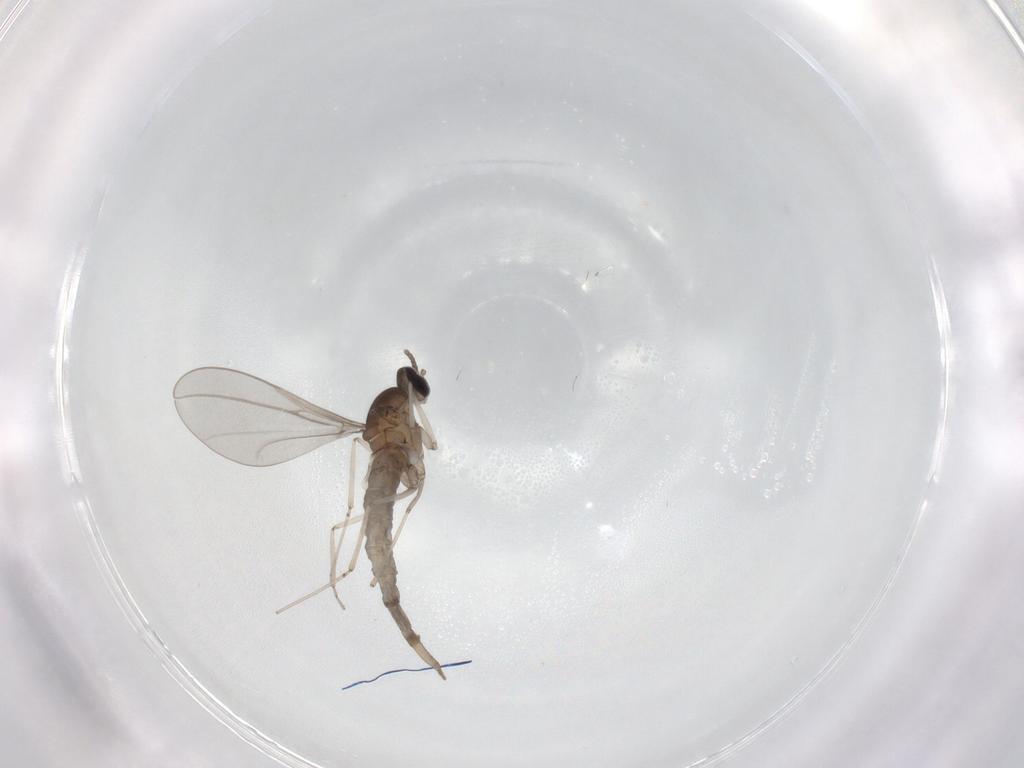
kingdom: Animalia
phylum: Arthropoda
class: Insecta
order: Diptera
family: Cecidomyiidae
